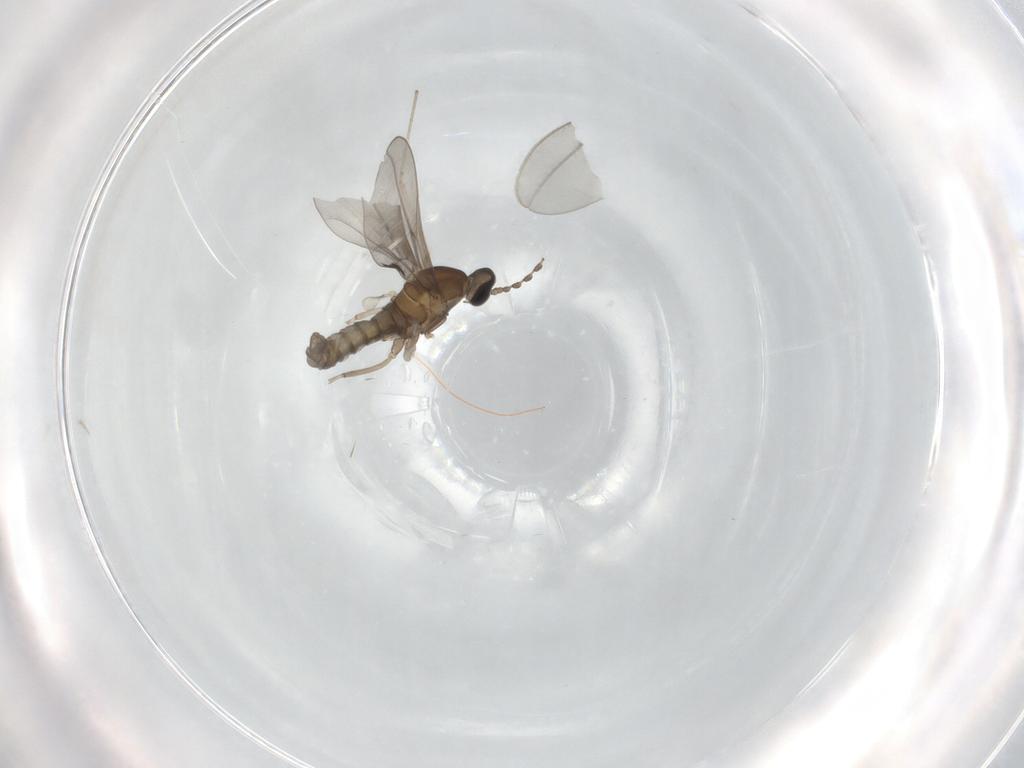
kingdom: Animalia
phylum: Arthropoda
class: Insecta
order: Diptera
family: Cecidomyiidae
